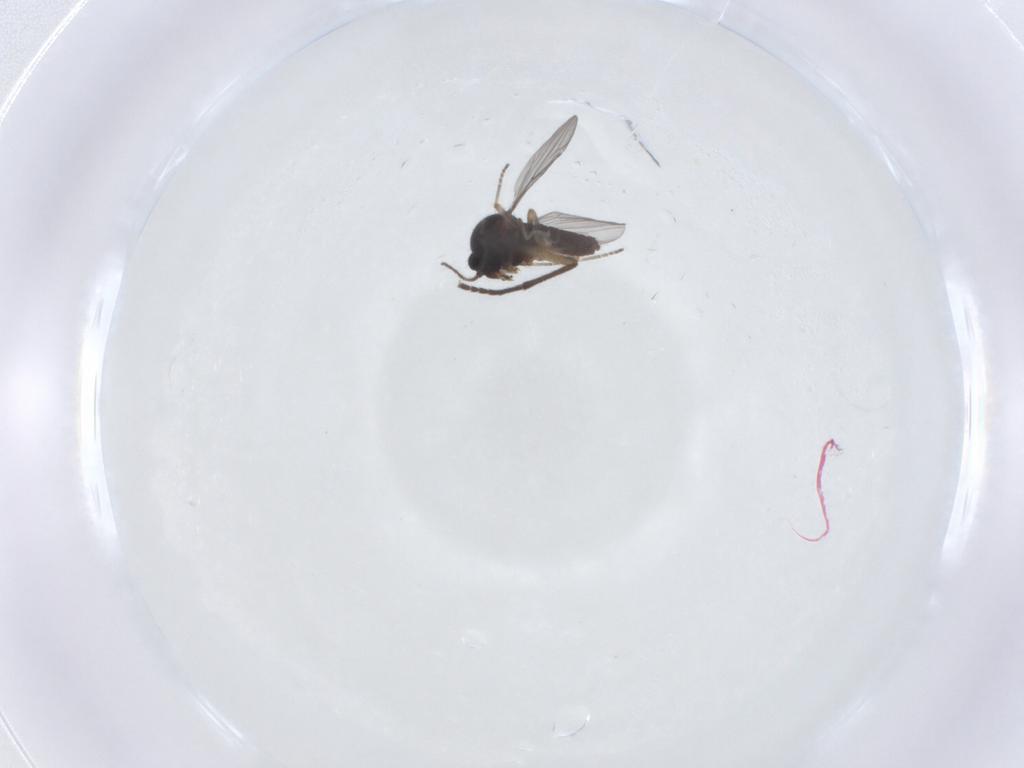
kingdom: Animalia
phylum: Arthropoda
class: Insecta
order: Diptera
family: Ceratopogonidae
